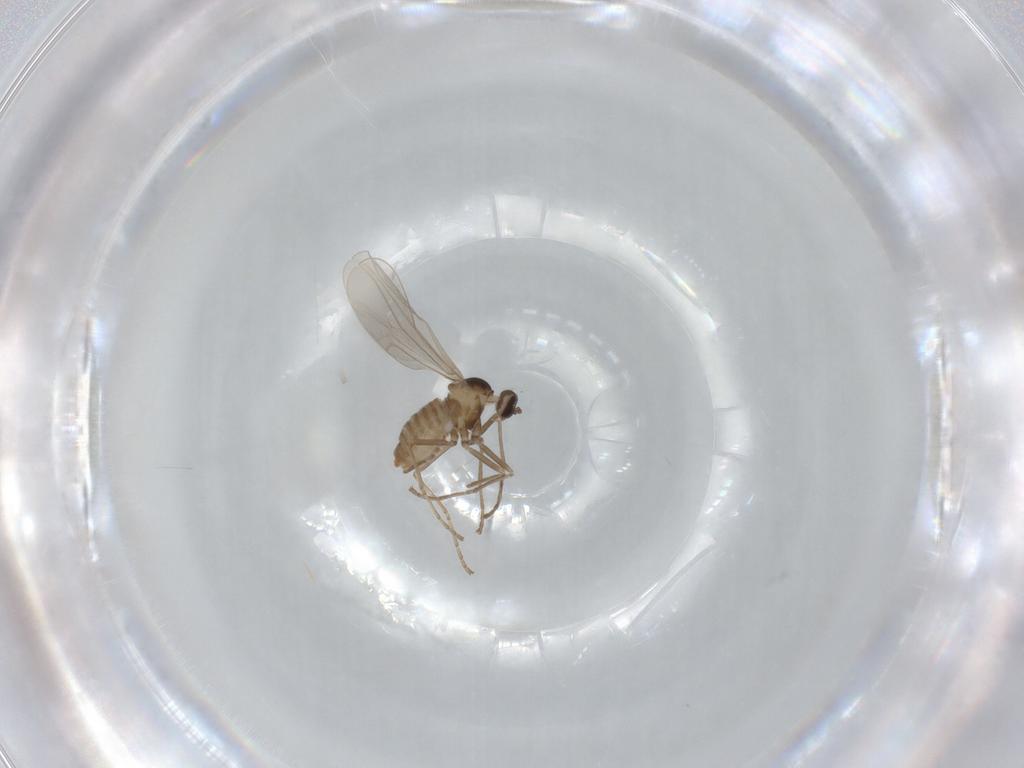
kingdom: Animalia
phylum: Arthropoda
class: Insecta
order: Diptera
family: Cecidomyiidae
